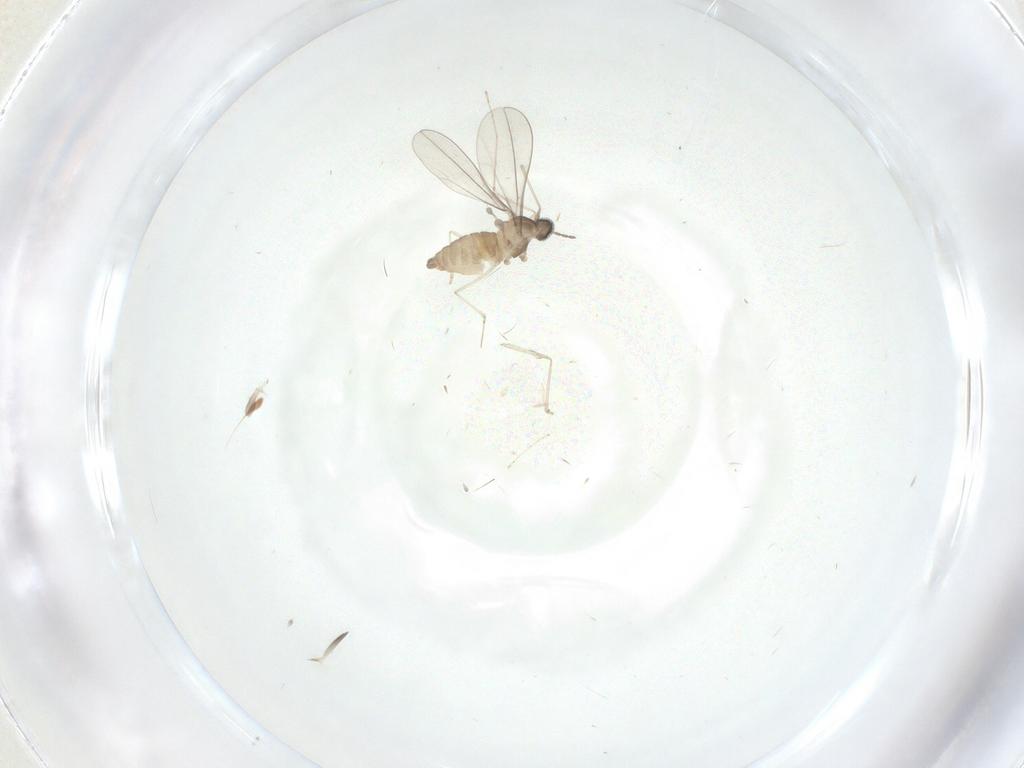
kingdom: Animalia
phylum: Arthropoda
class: Insecta
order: Diptera
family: Cecidomyiidae
